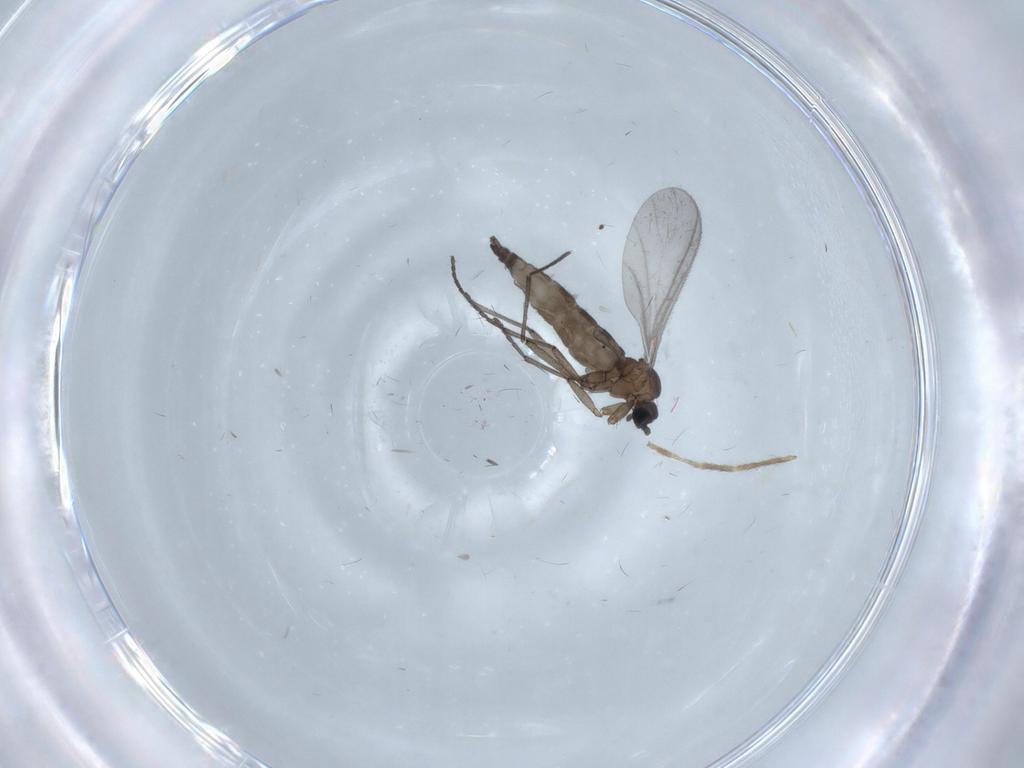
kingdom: Animalia
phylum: Arthropoda
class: Insecta
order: Diptera
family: Sciaridae
